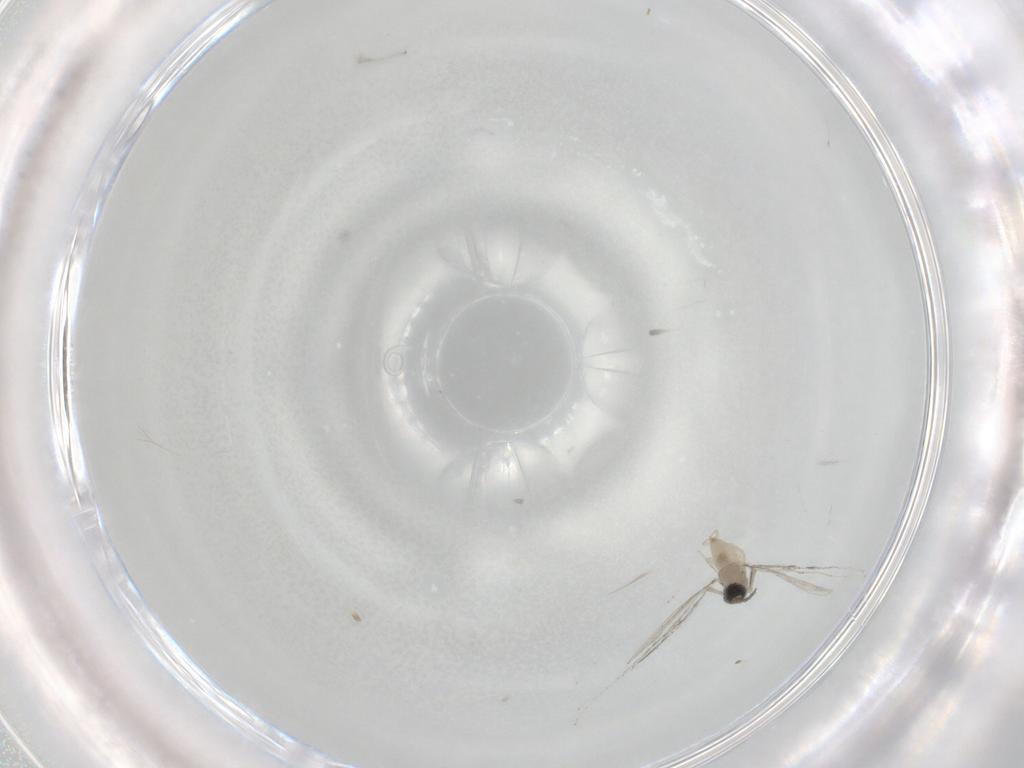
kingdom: Animalia
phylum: Arthropoda
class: Insecta
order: Diptera
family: Cecidomyiidae
